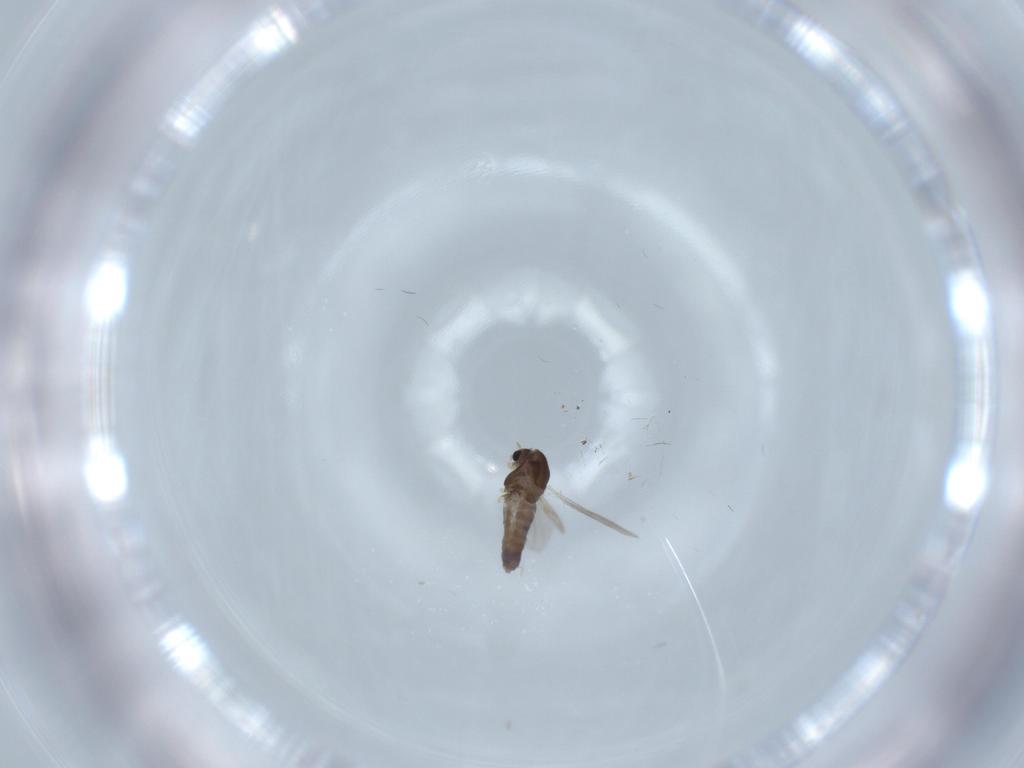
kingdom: Animalia
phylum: Arthropoda
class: Insecta
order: Diptera
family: Chironomidae
